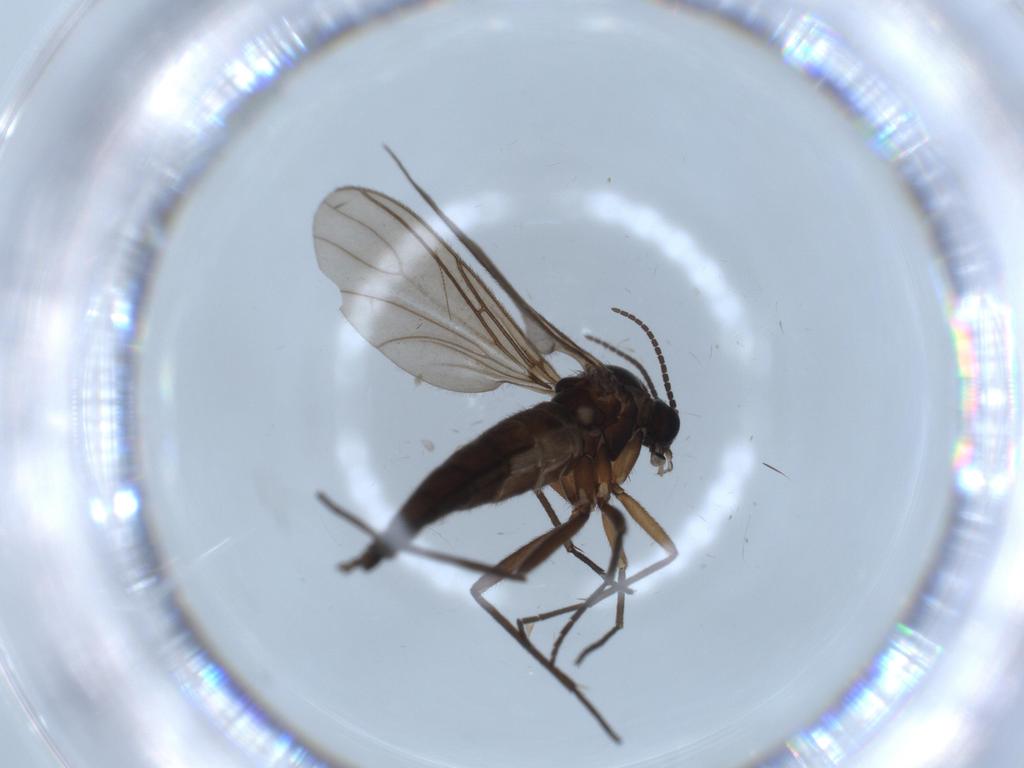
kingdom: Animalia
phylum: Arthropoda
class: Insecta
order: Diptera
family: Sciaridae
